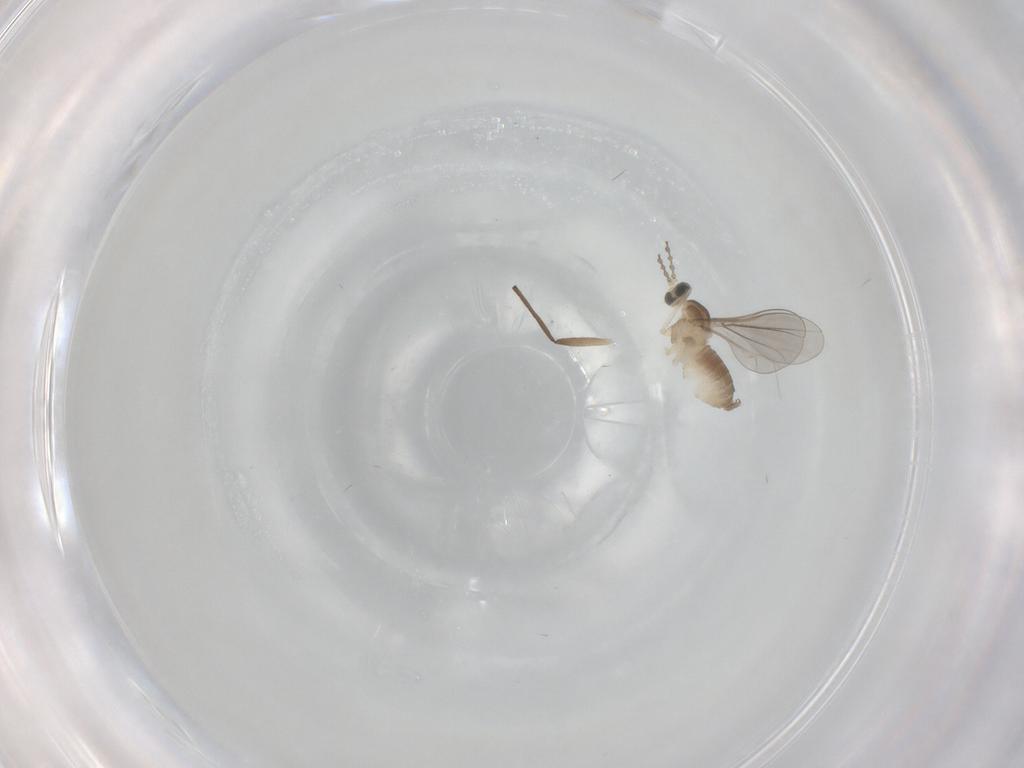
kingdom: Animalia
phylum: Arthropoda
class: Insecta
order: Diptera
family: Cecidomyiidae
